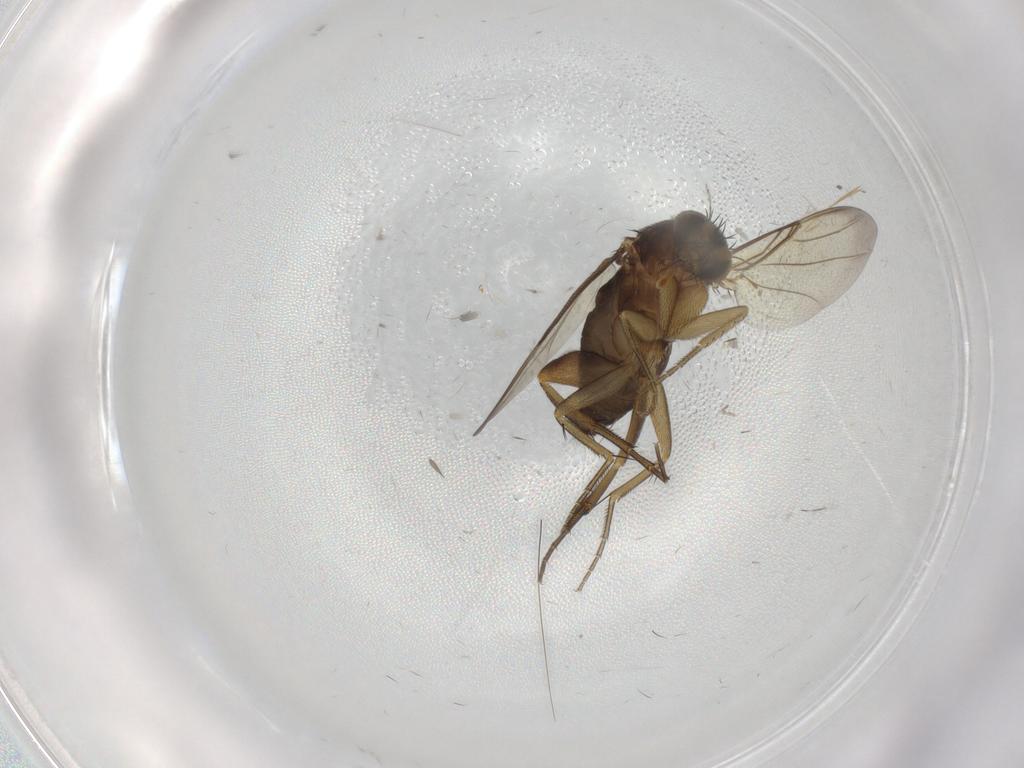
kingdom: Animalia
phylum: Arthropoda
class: Insecta
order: Diptera
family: Phoridae
